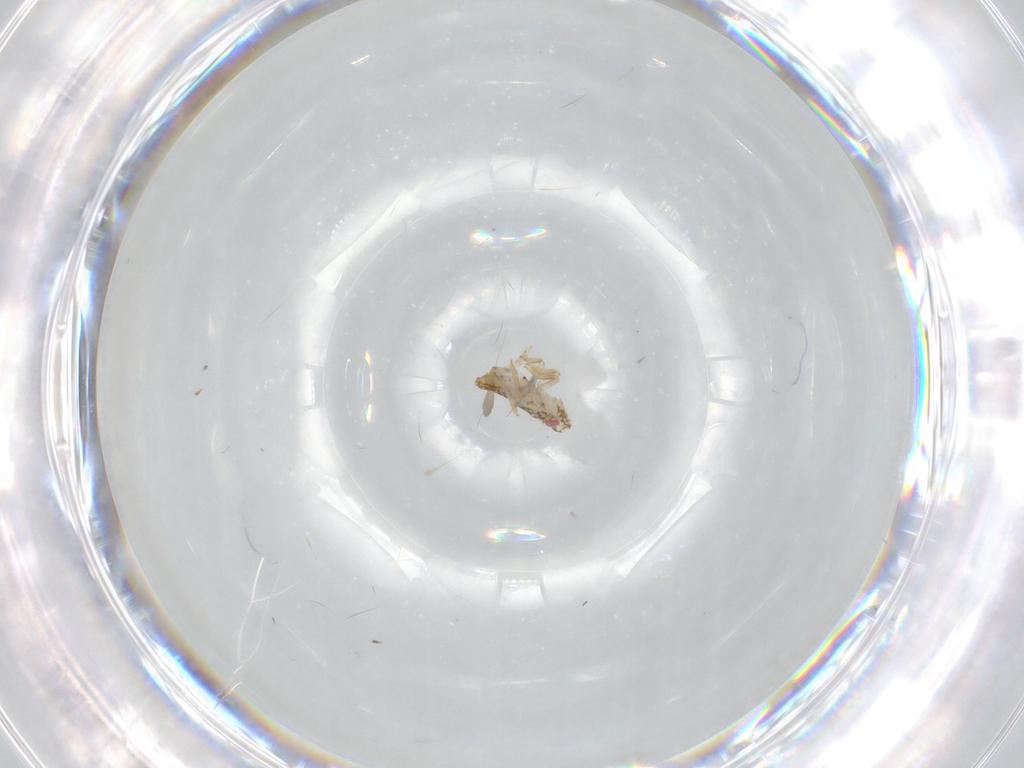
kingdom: Animalia
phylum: Arthropoda
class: Insecta
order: Hemiptera
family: Delphacidae
